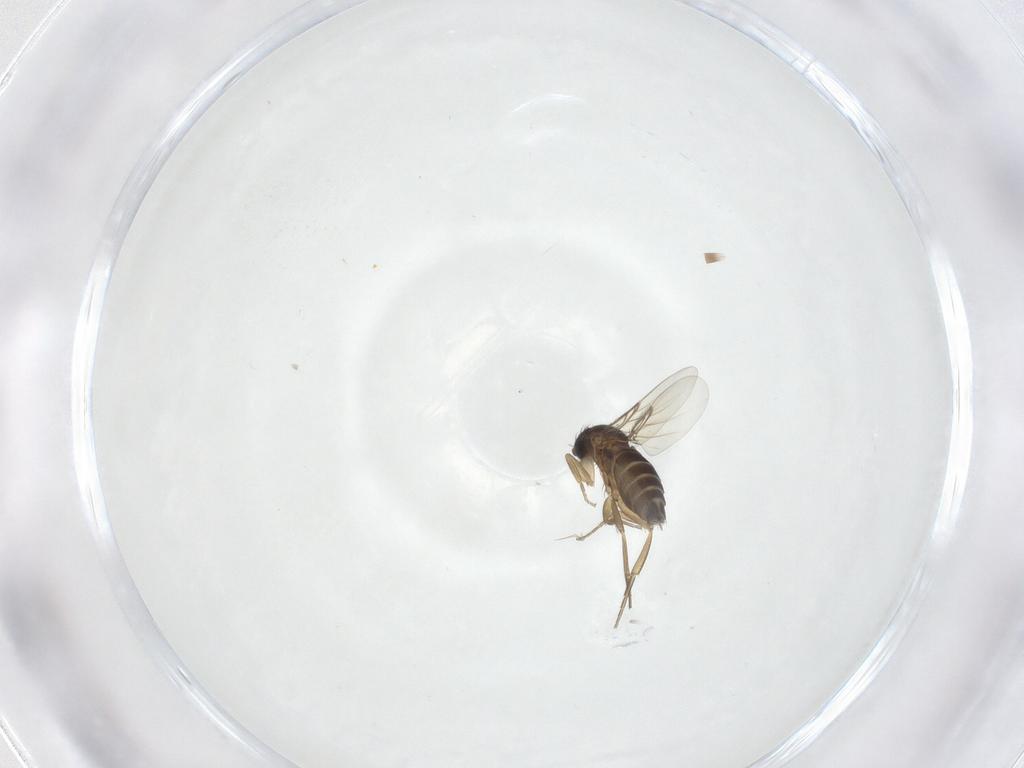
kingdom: Animalia
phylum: Arthropoda
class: Insecta
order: Diptera
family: Phoridae
